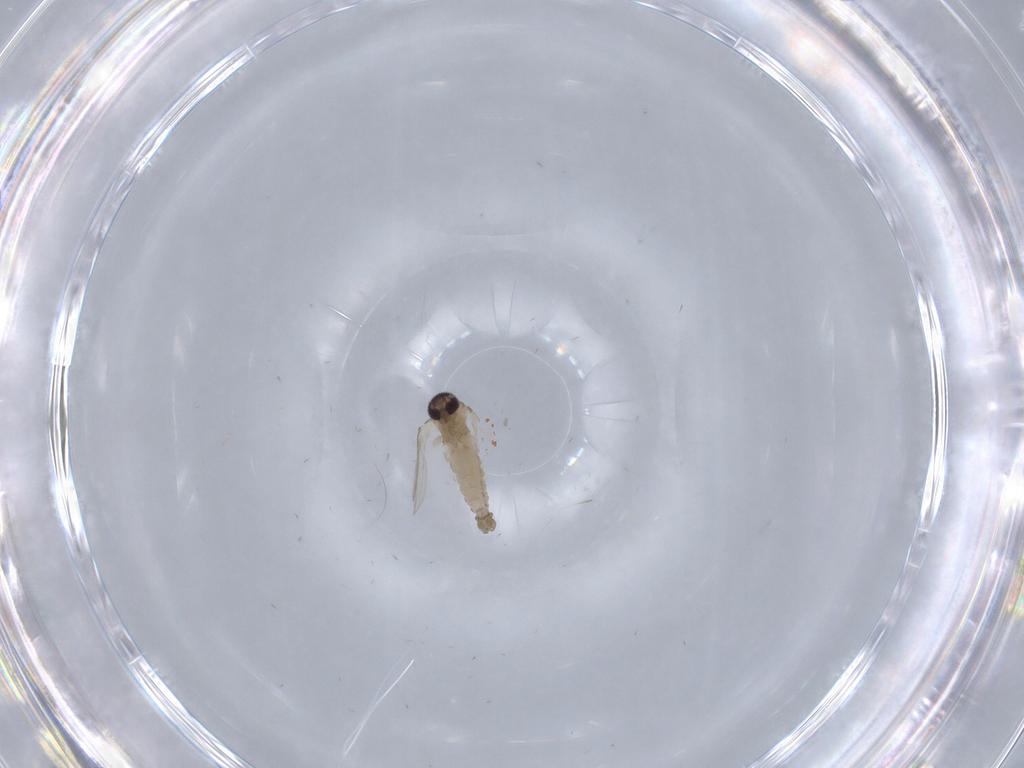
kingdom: Animalia
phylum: Arthropoda
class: Insecta
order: Diptera
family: Psychodidae
